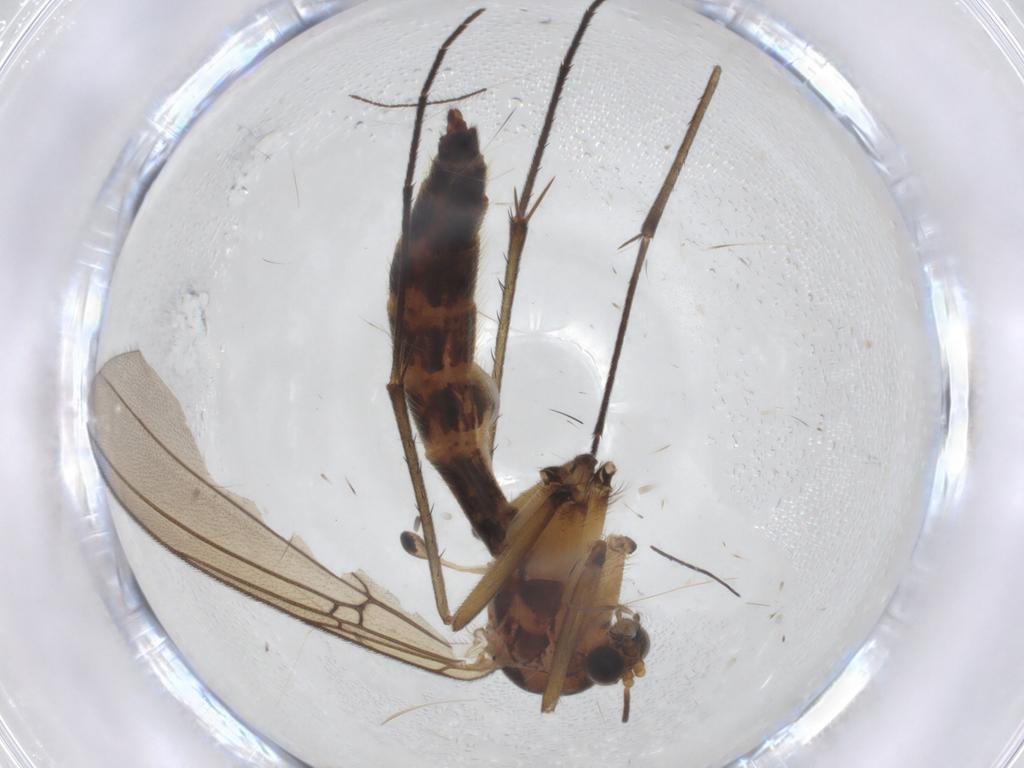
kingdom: Animalia
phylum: Arthropoda
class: Insecta
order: Diptera
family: Mycetophilidae
